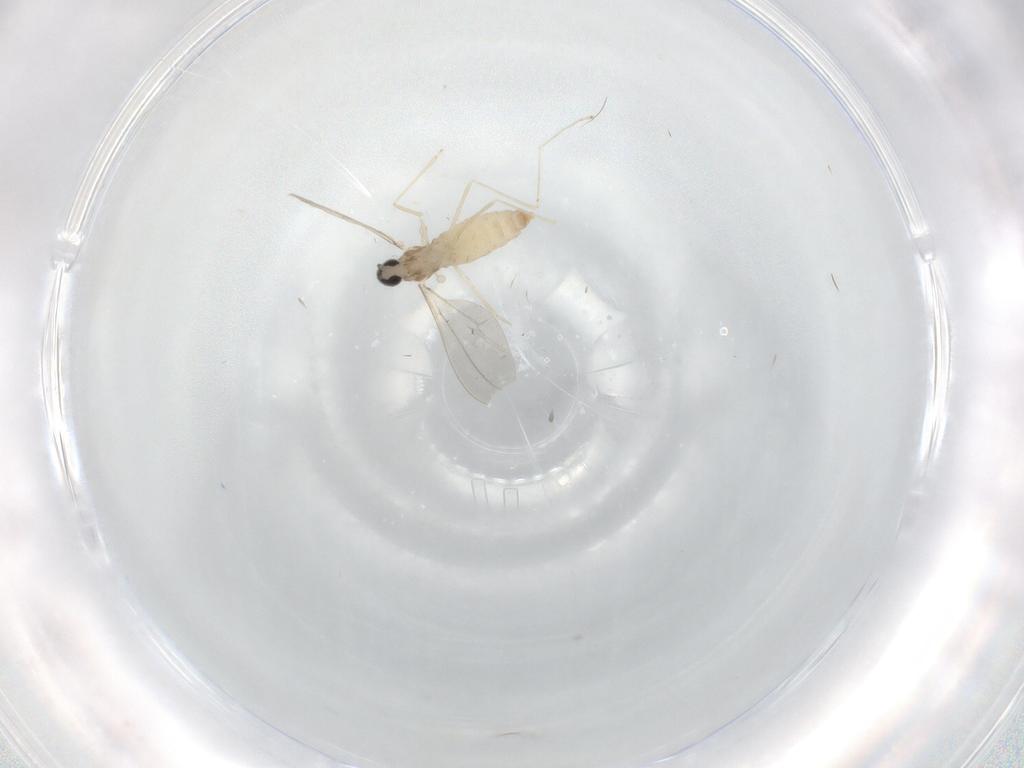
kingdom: Animalia
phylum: Arthropoda
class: Insecta
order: Diptera
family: Cecidomyiidae
